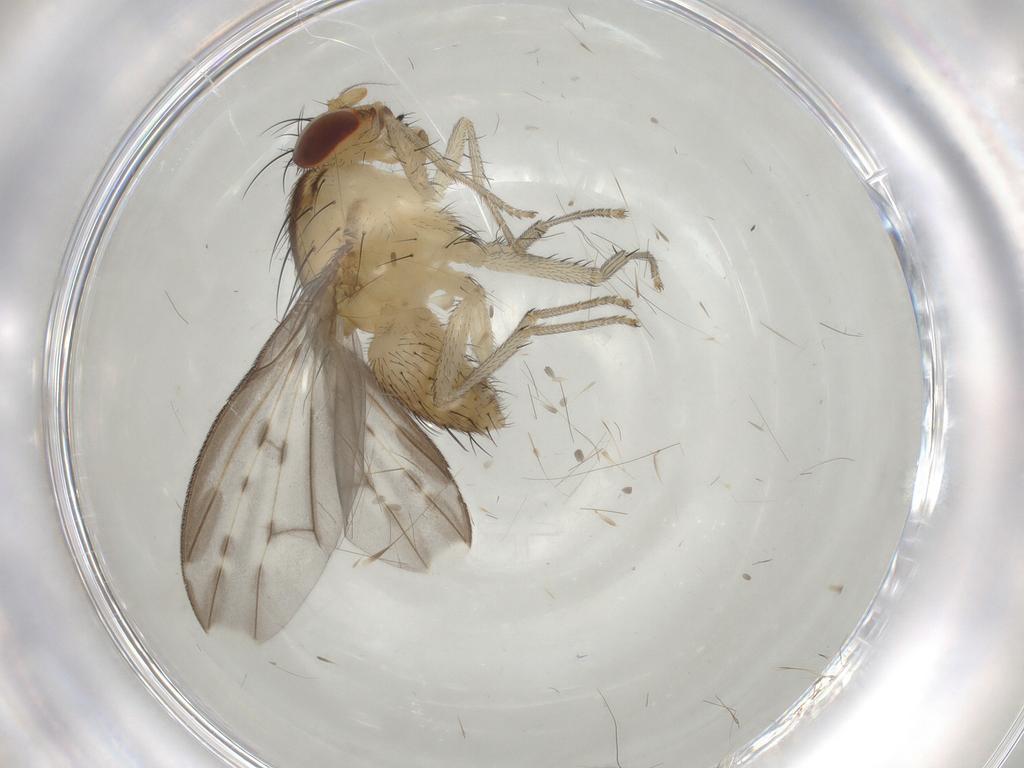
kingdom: Animalia
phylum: Arthropoda
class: Insecta
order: Diptera
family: Lauxaniidae
